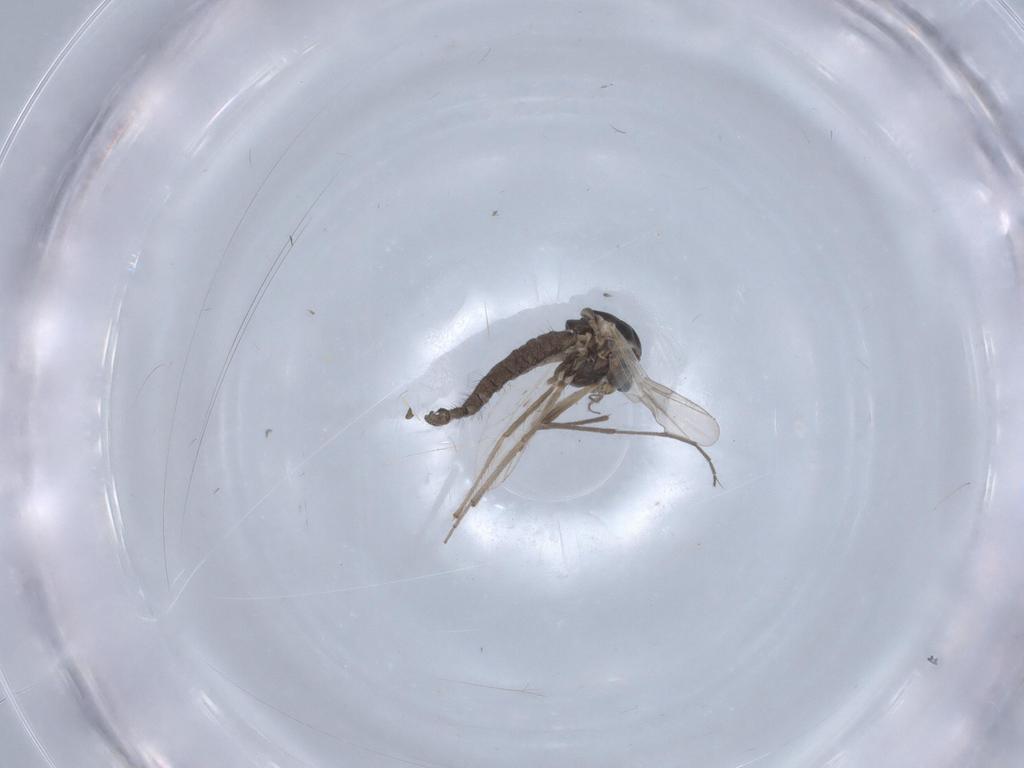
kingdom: Animalia
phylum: Arthropoda
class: Insecta
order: Diptera
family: Chironomidae
